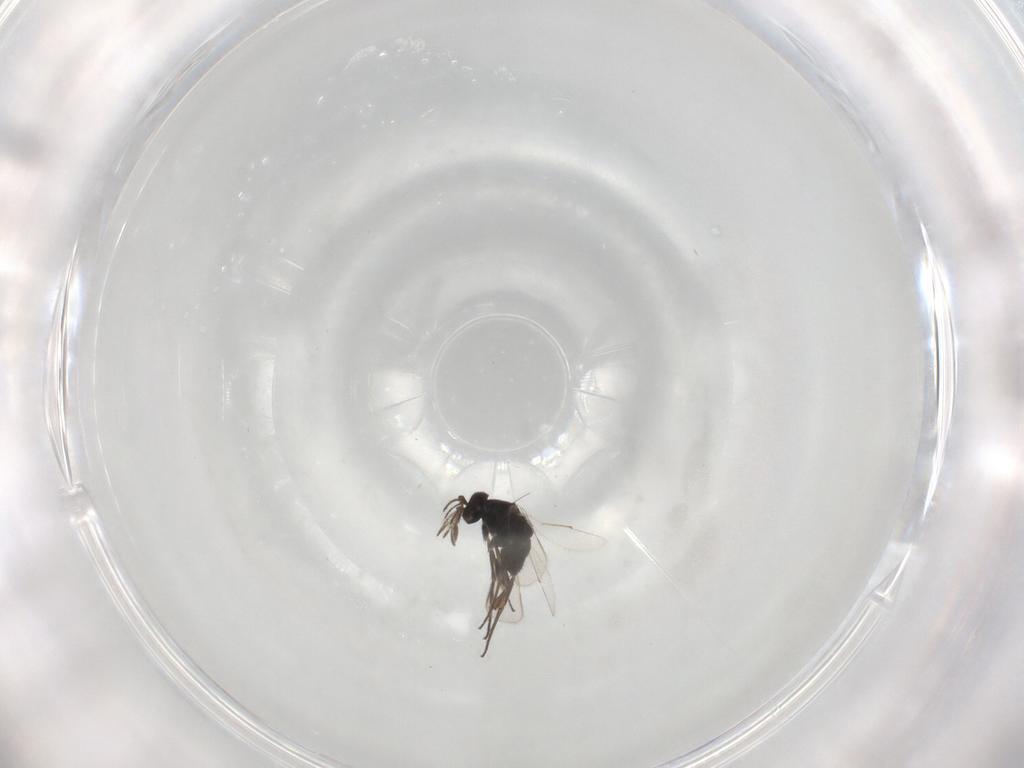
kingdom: Animalia
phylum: Arthropoda
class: Insecta
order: Hymenoptera
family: Eulophidae
